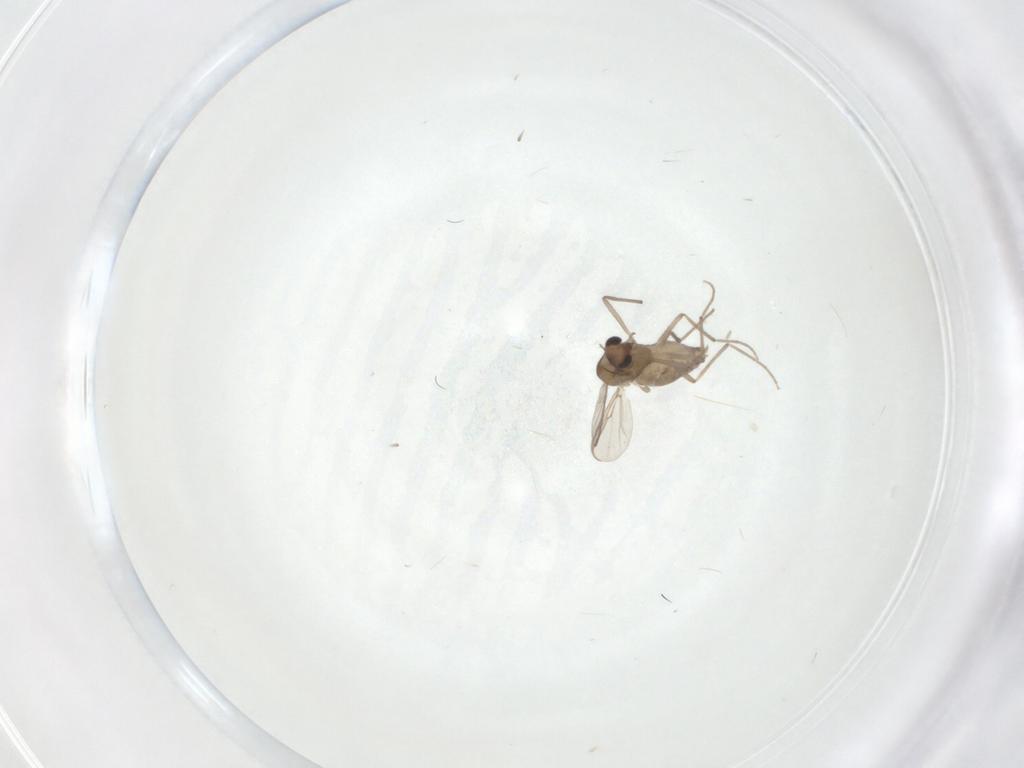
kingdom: Animalia
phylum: Arthropoda
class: Insecta
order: Diptera
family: Chironomidae
